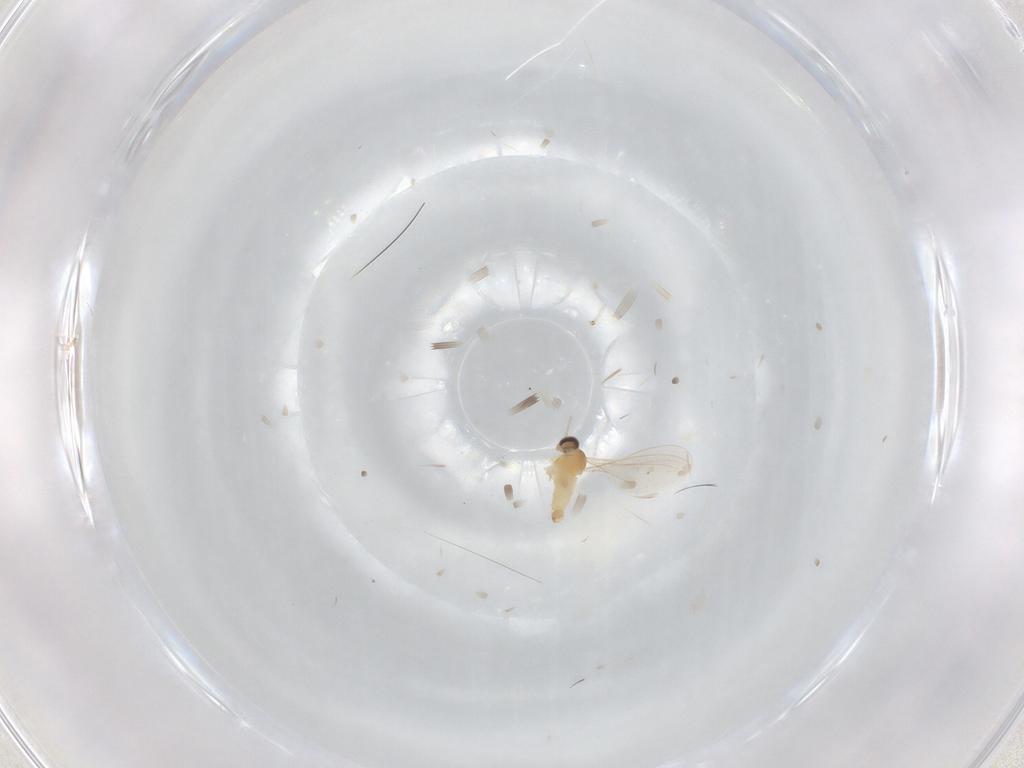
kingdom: Animalia
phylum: Arthropoda
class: Insecta
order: Diptera
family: Cecidomyiidae
